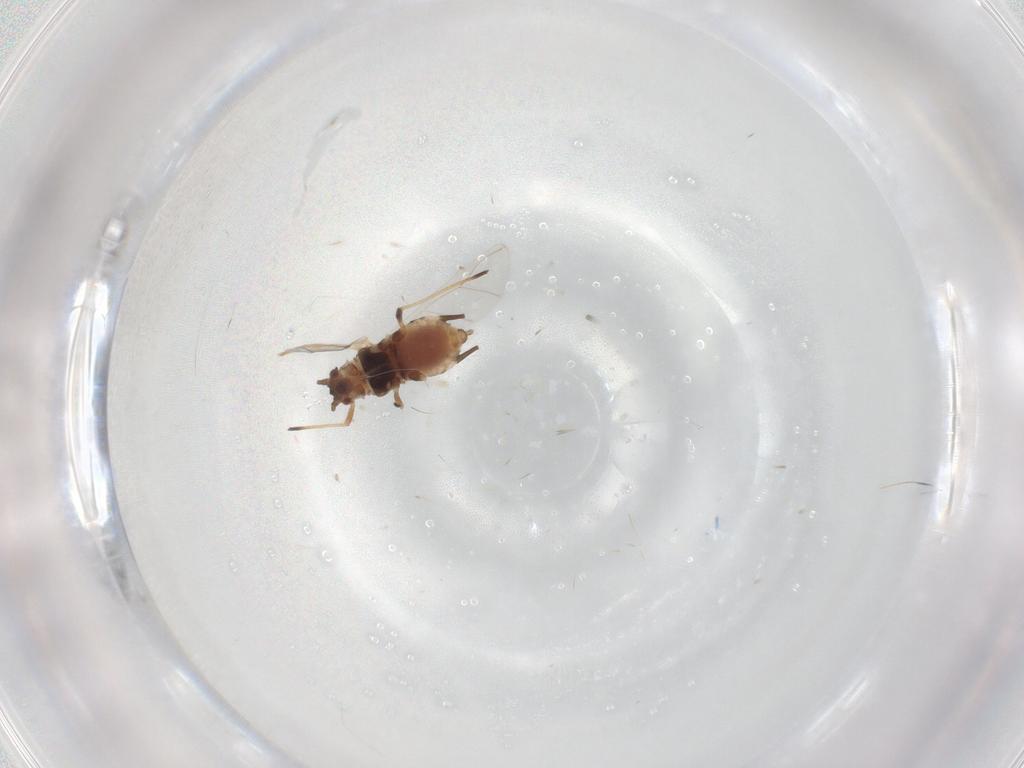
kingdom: Animalia
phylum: Arthropoda
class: Insecta
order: Hemiptera
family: Aphididae
